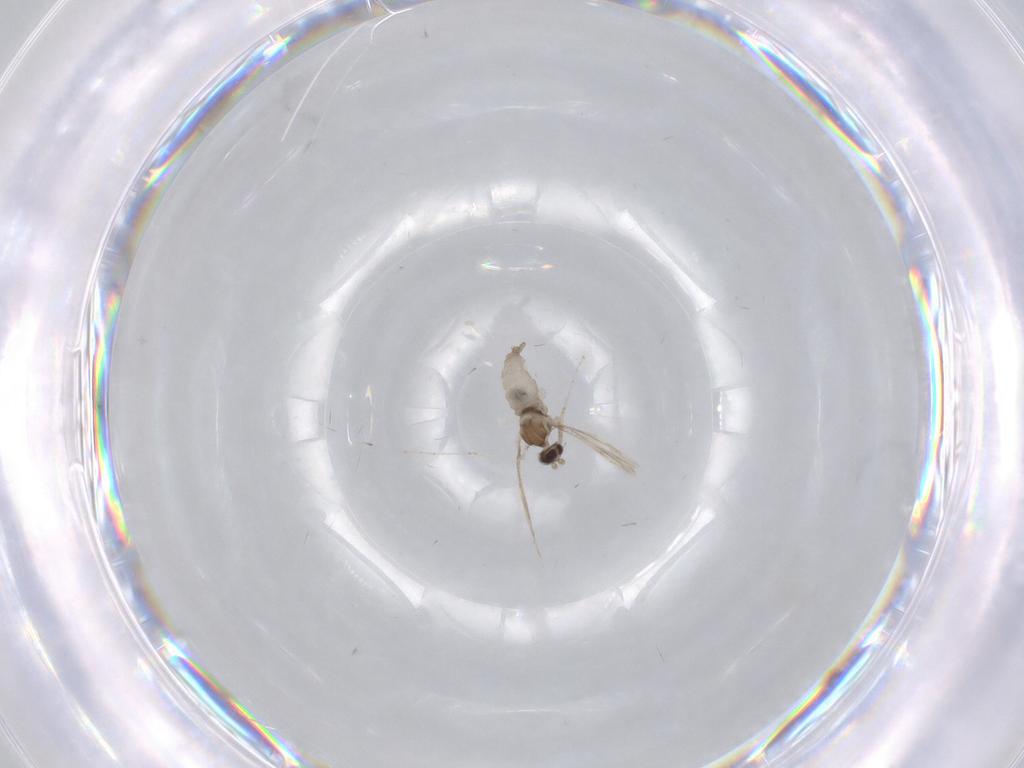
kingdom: Animalia
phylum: Arthropoda
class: Insecta
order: Diptera
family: Cecidomyiidae
